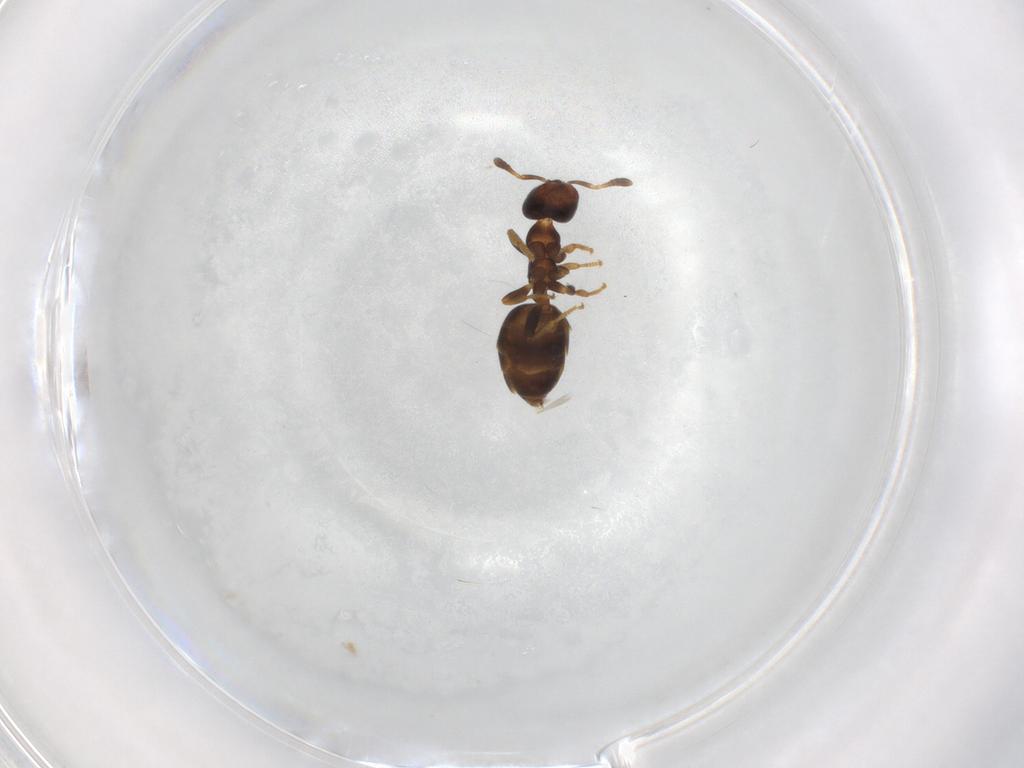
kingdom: Animalia
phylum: Arthropoda
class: Insecta
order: Hymenoptera
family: Formicidae
